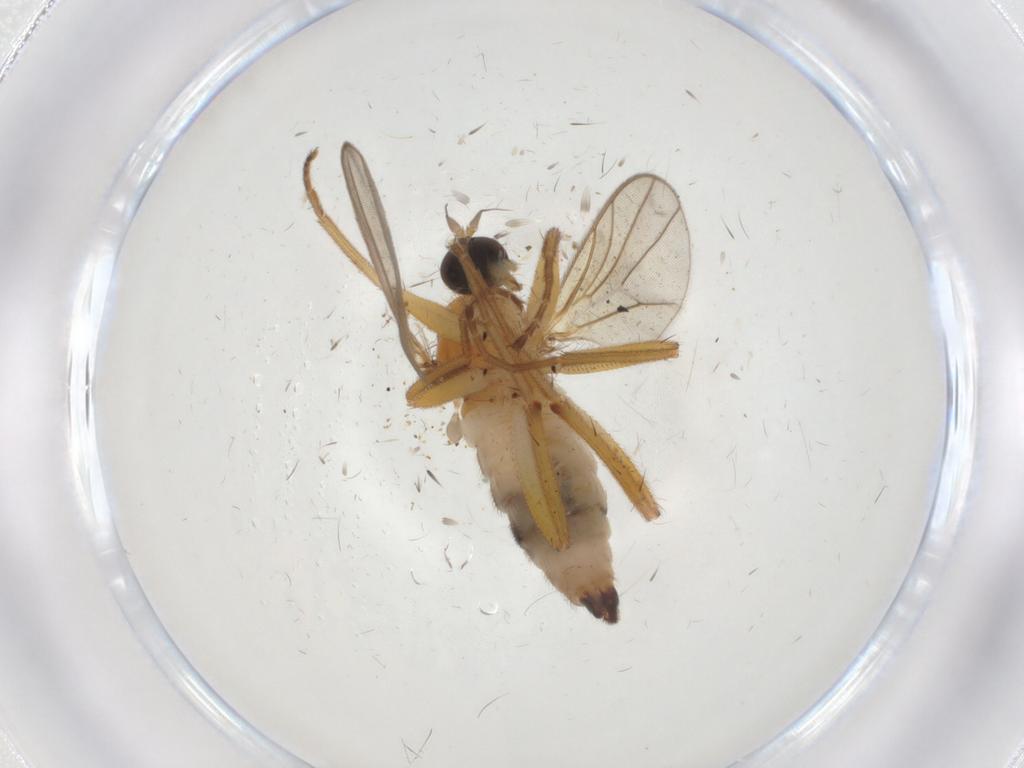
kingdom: Animalia
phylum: Arthropoda
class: Insecta
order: Diptera
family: Hybotidae
